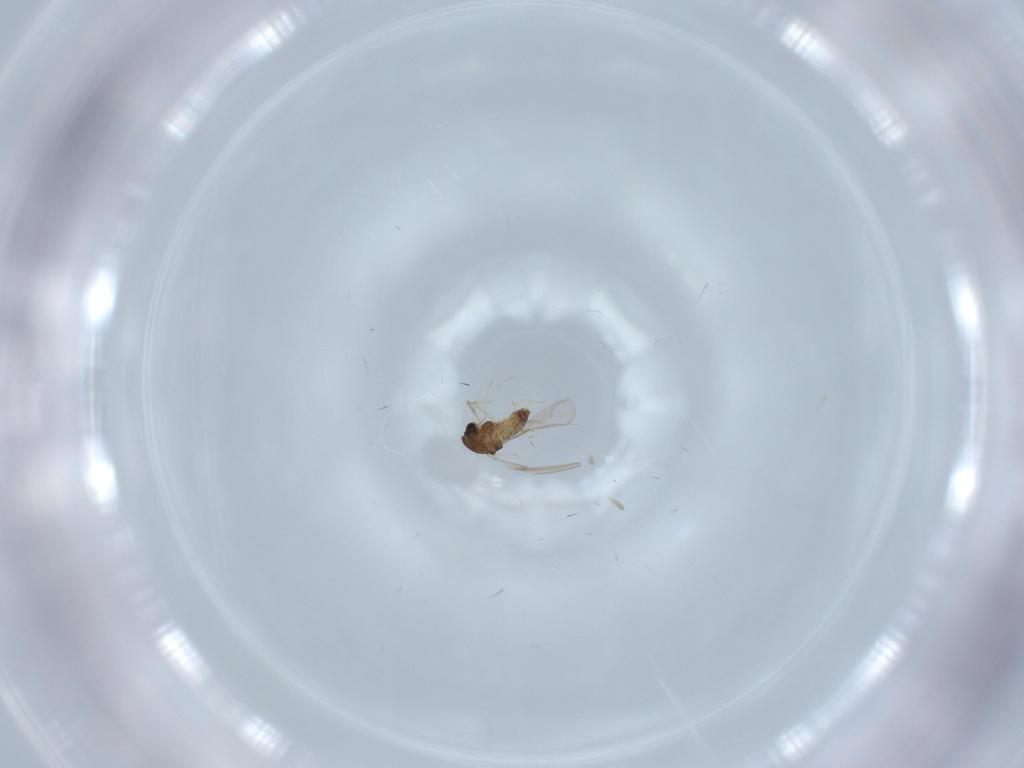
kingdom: Animalia
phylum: Arthropoda
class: Insecta
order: Diptera
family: Chironomidae
